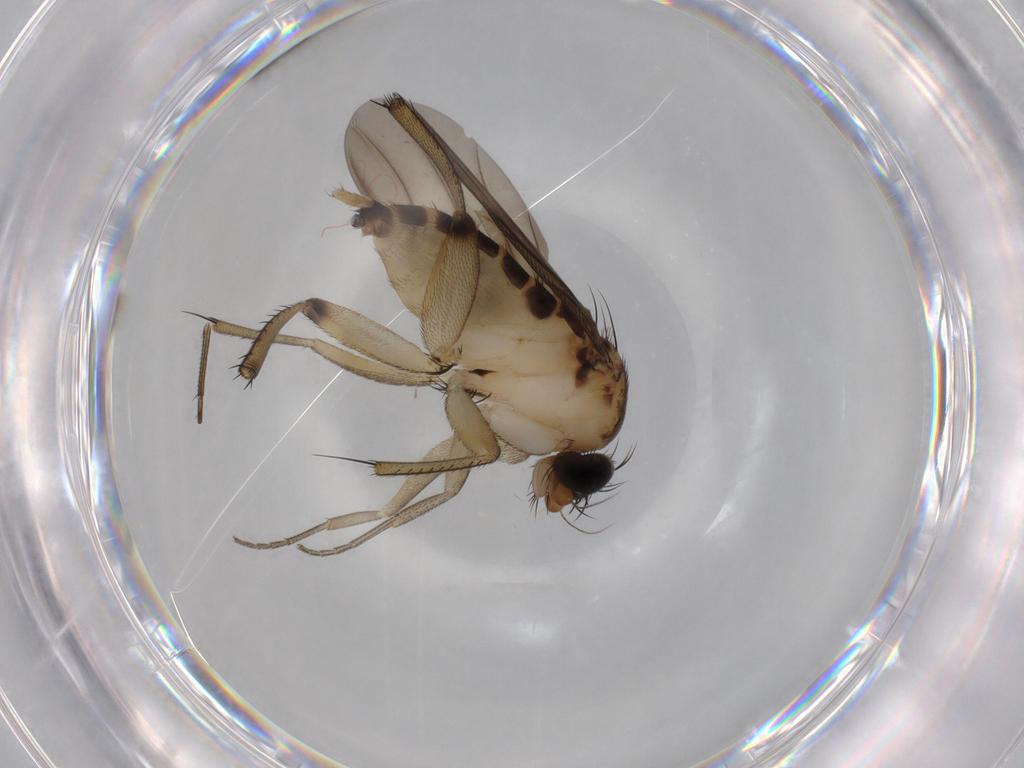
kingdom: Animalia
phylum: Arthropoda
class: Insecta
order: Diptera
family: Phoridae
